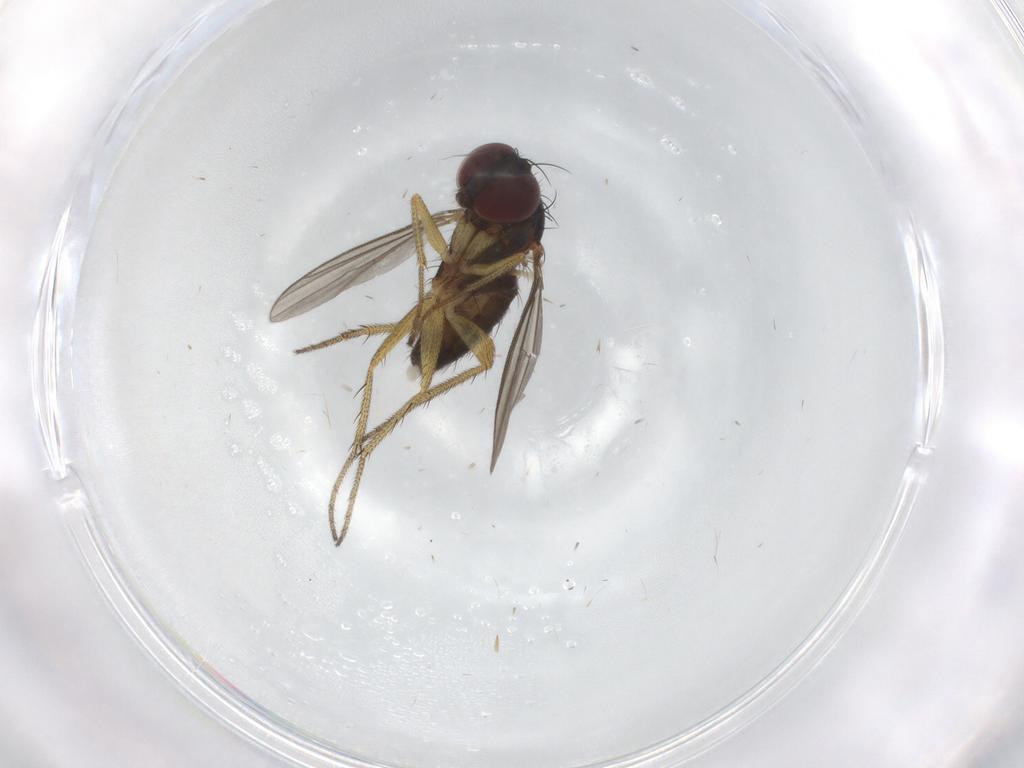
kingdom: Animalia
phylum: Arthropoda
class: Insecta
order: Diptera
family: Dolichopodidae
